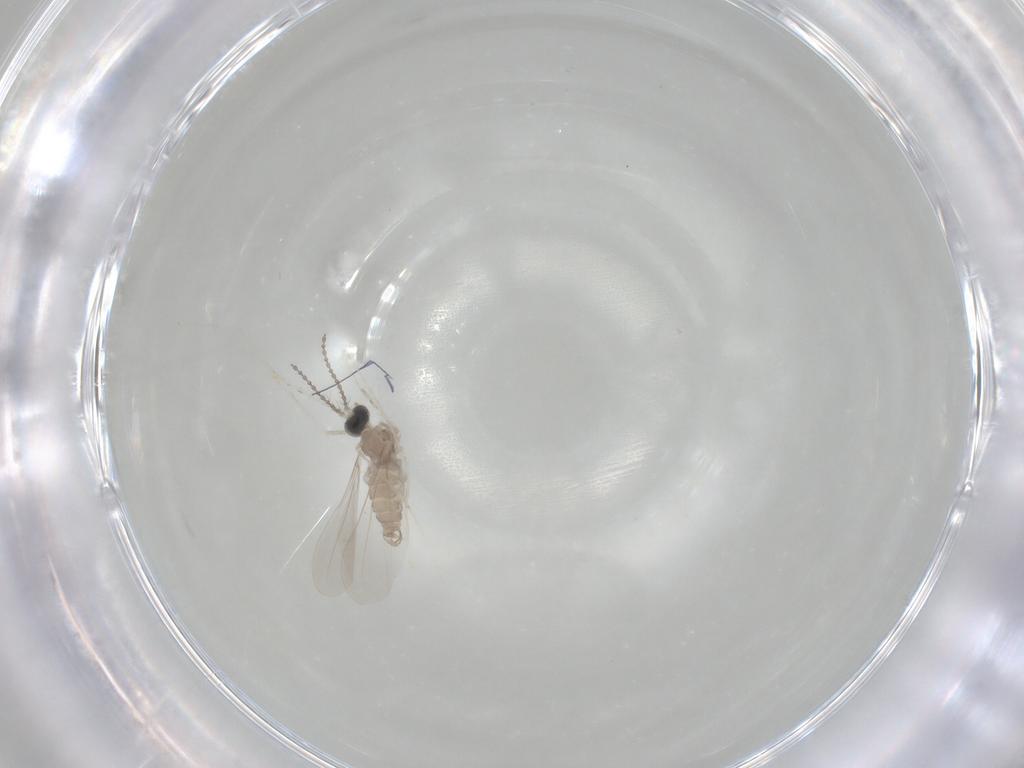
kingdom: Animalia
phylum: Arthropoda
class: Insecta
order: Diptera
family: Cecidomyiidae
